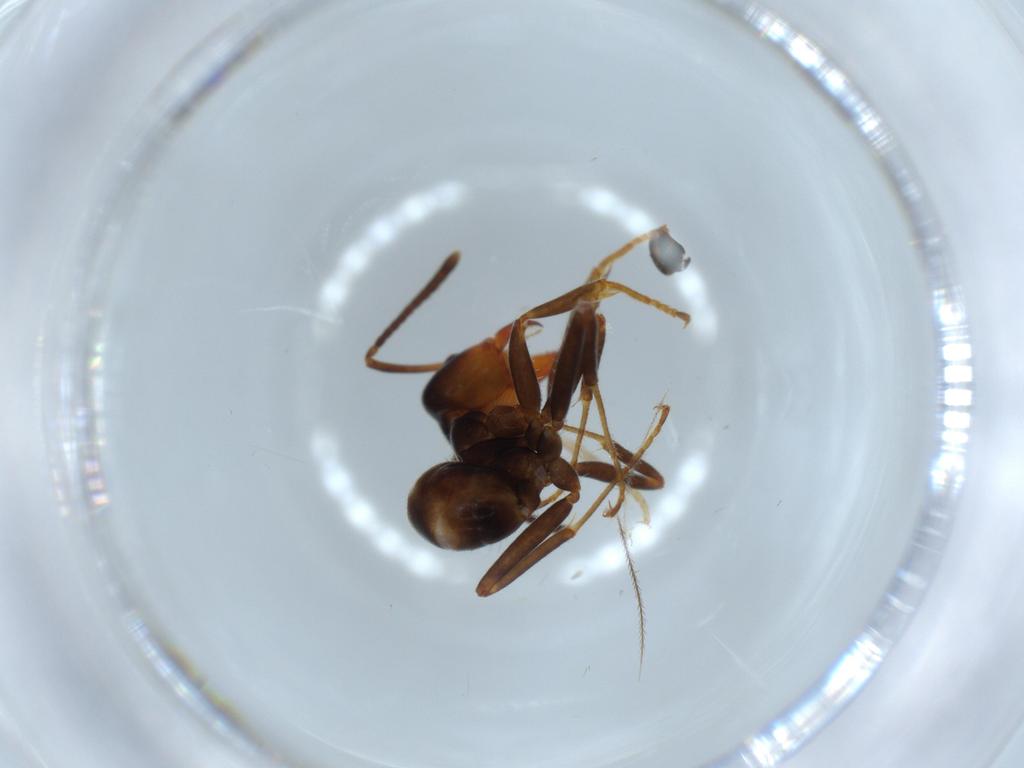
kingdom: Animalia
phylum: Arthropoda
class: Insecta
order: Hymenoptera
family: Formicidae
